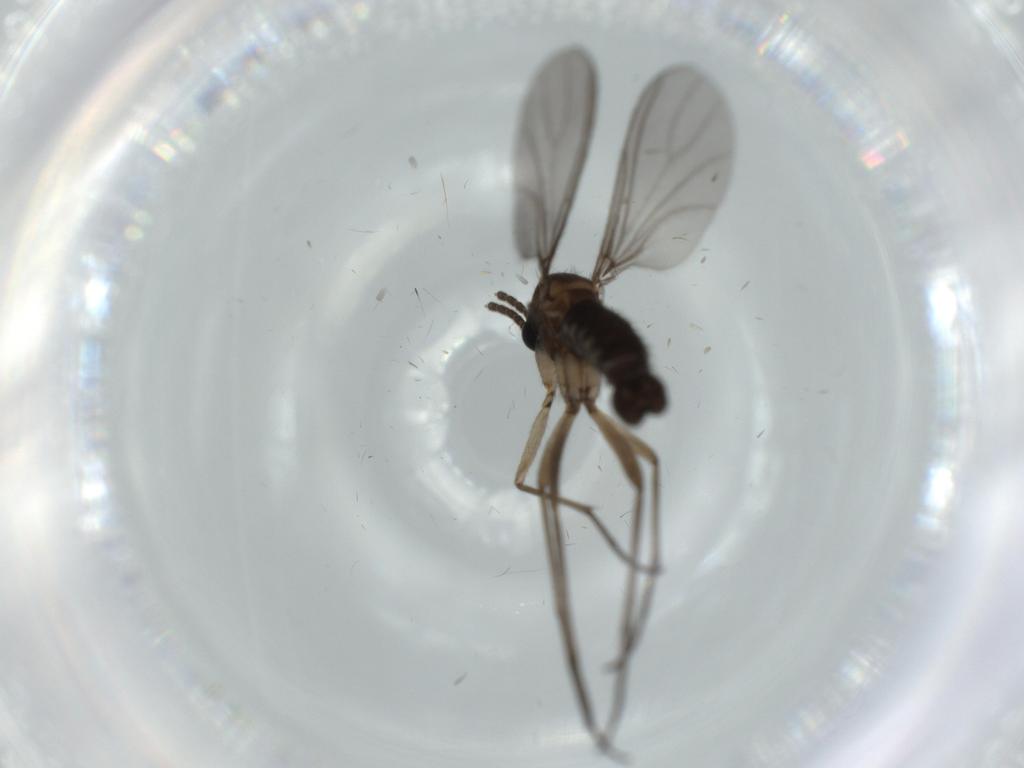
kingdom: Animalia
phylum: Arthropoda
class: Insecta
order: Diptera
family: Sciaridae
